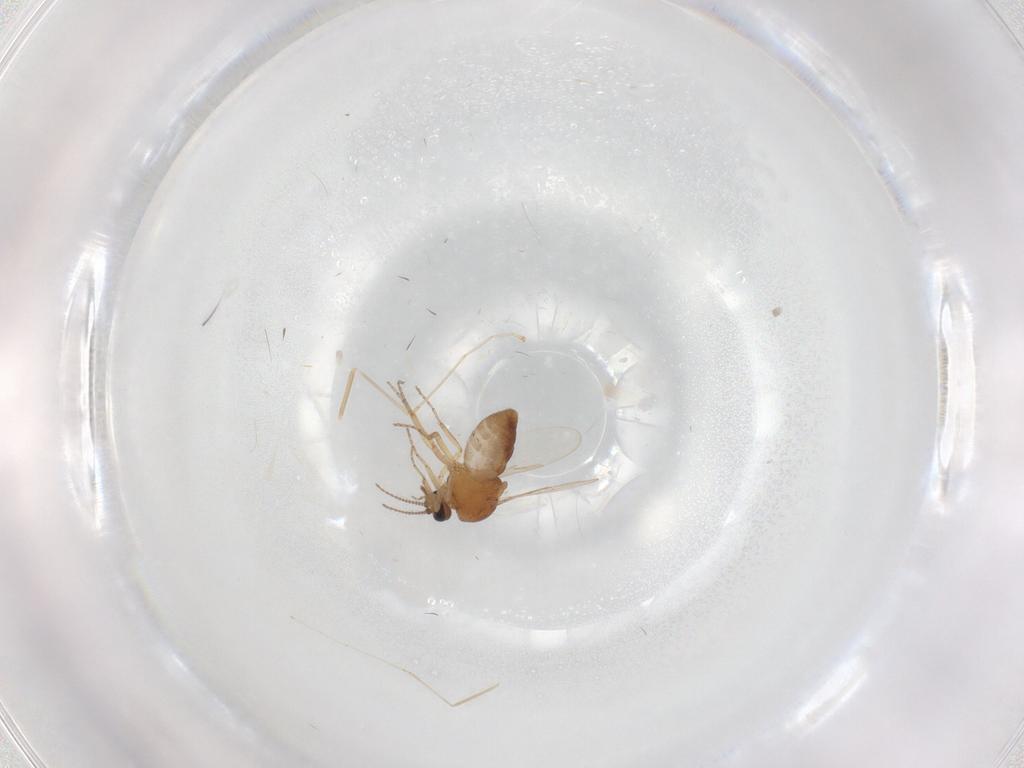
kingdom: Animalia
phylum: Arthropoda
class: Insecta
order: Diptera
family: Ceratopogonidae
